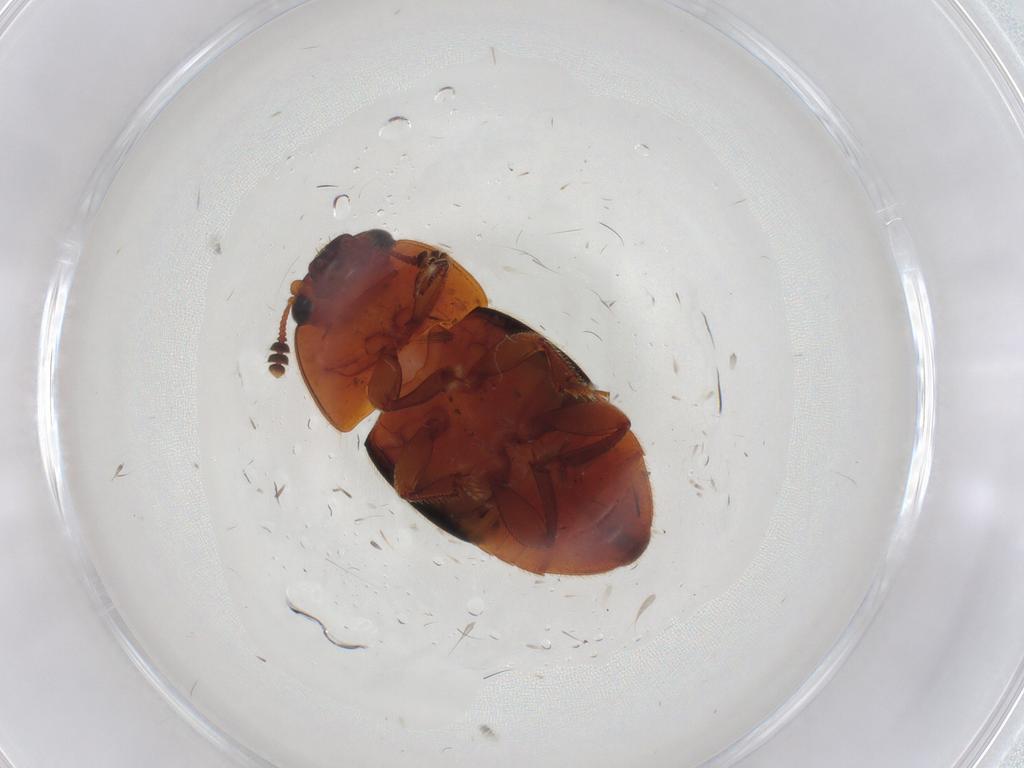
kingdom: Animalia
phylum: Arthropoda
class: Insecta
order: Coleoptera
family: Nitidulidae
